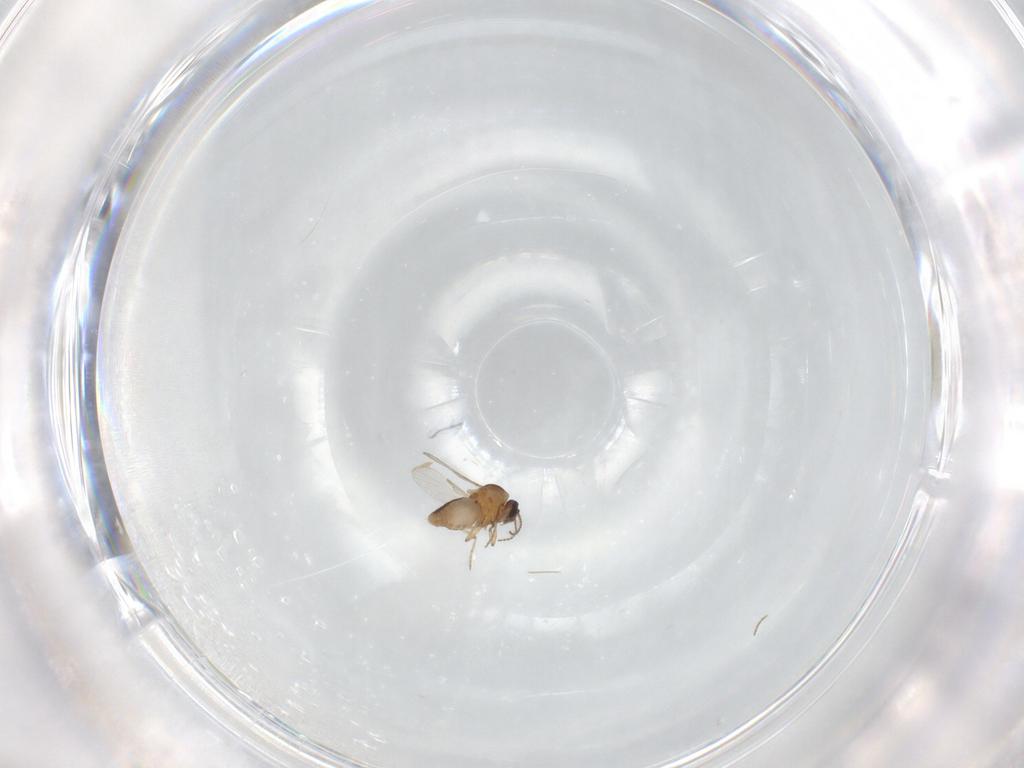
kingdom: Animalia
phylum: Arthropoda
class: Insecta
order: Diptera
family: Ceratopogonidae
